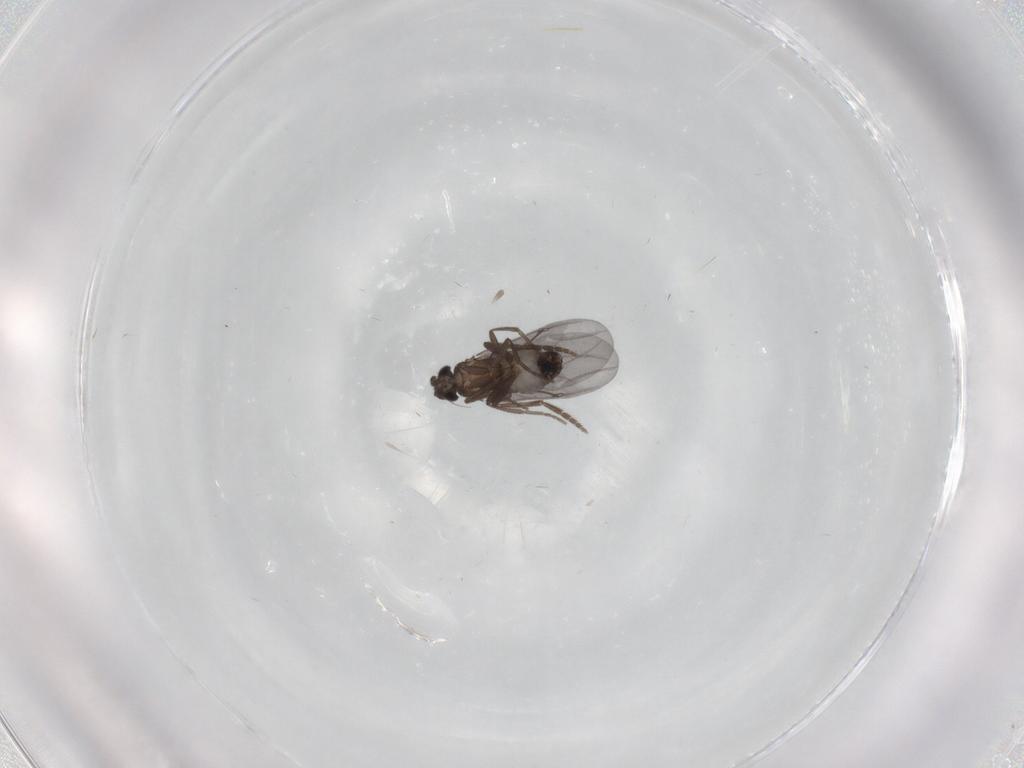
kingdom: Animalia
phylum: Arthropoda
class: Insecta
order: Diptera
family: Phoridae
